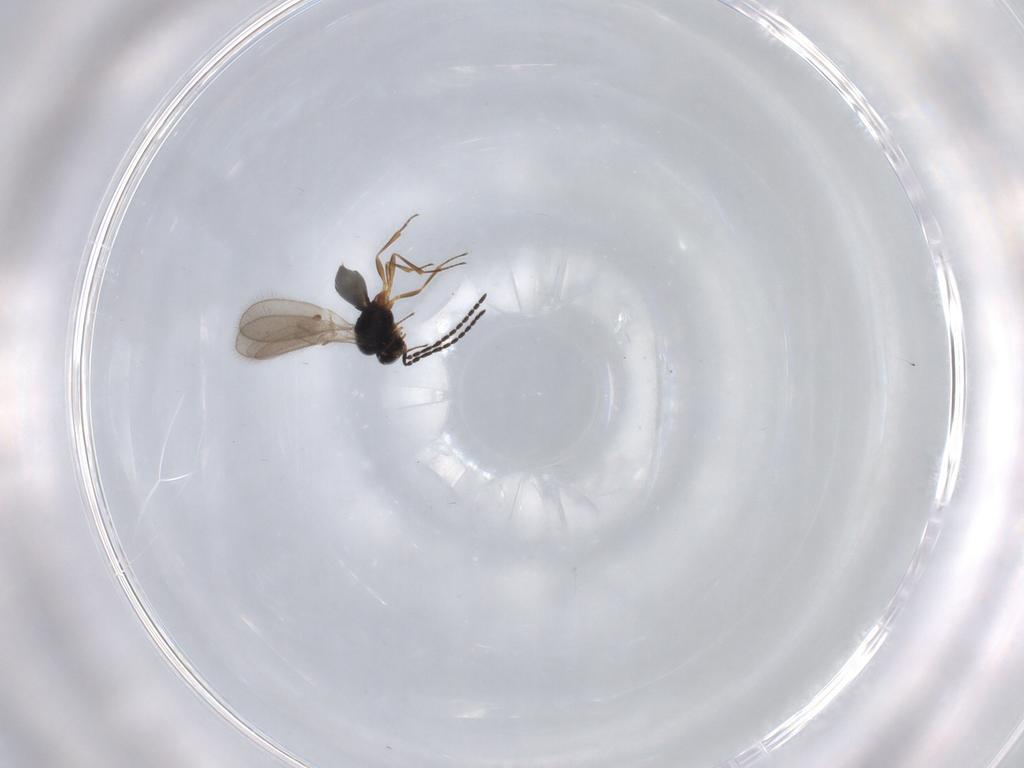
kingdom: Animalia
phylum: Arthropoda
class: Insecta
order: Hymenoptera
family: Scelionidae
